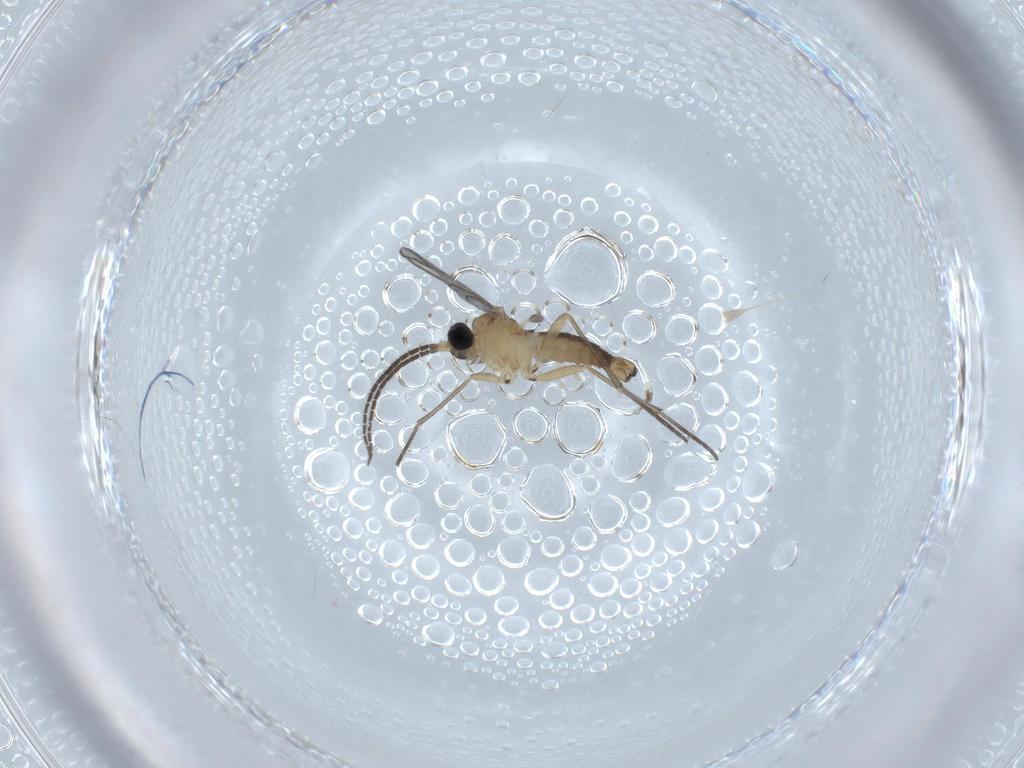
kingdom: Animalia
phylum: Arthropoda
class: Insecta
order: Diptera
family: Sciaridae
